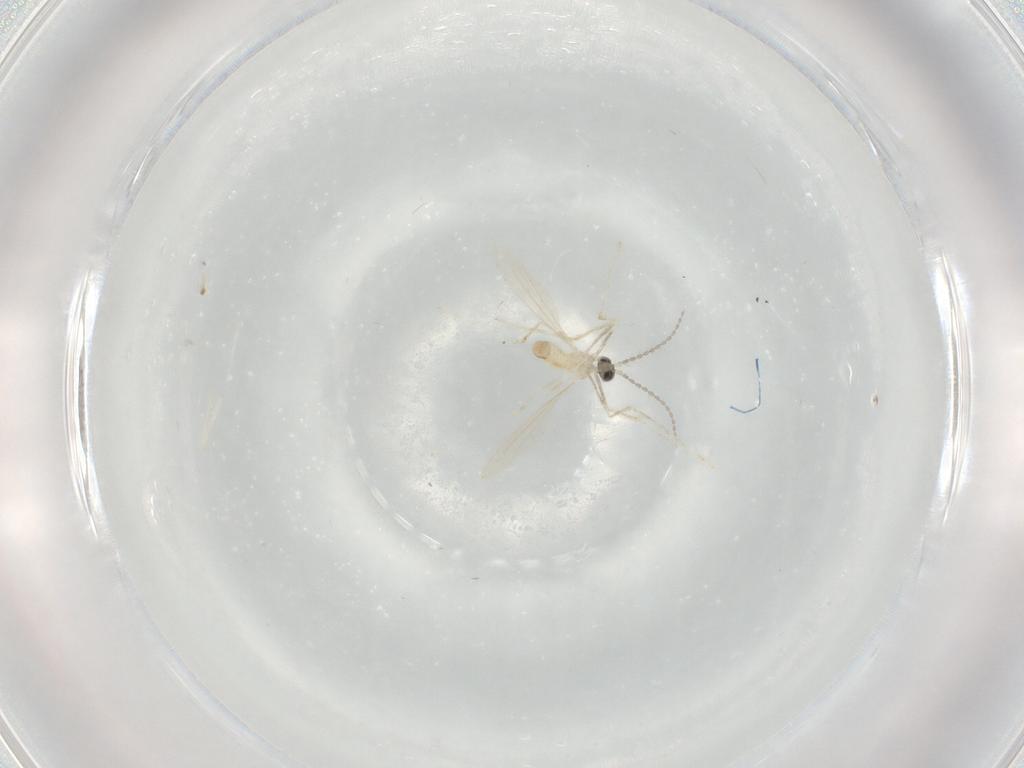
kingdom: Animalia
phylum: Arthropoda
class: Insecta
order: Diptera
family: Cecidomyiidae
